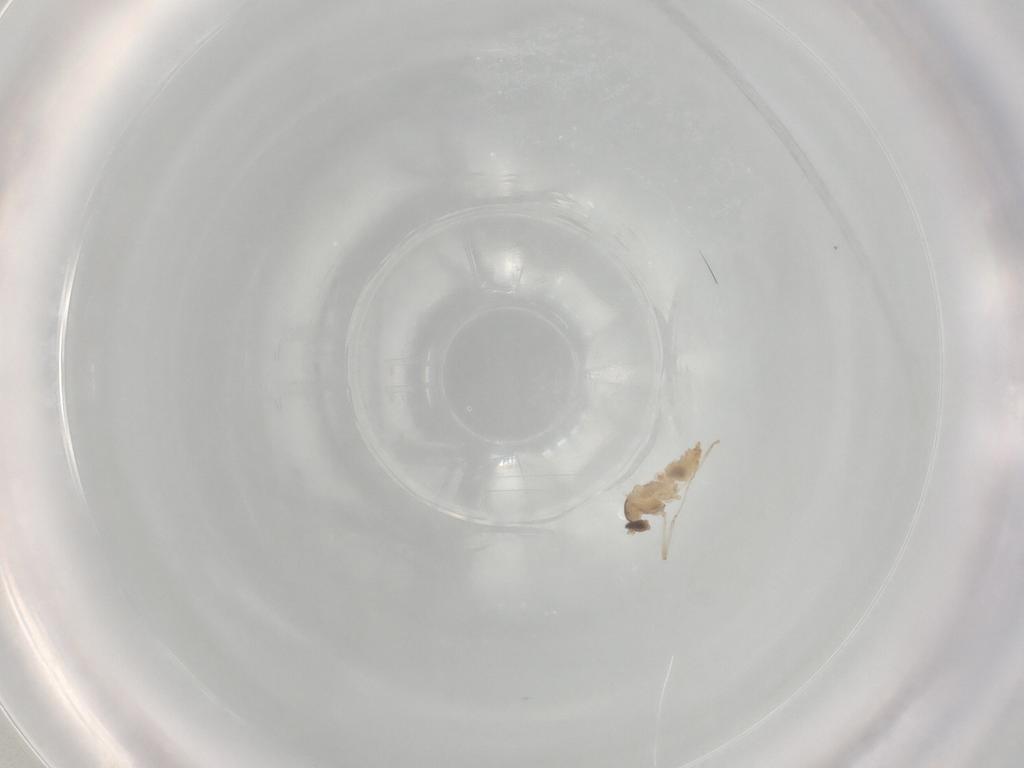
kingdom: Animalia
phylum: Arthropoda
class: Insecta
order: Diptera
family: Cecidomyiidae
